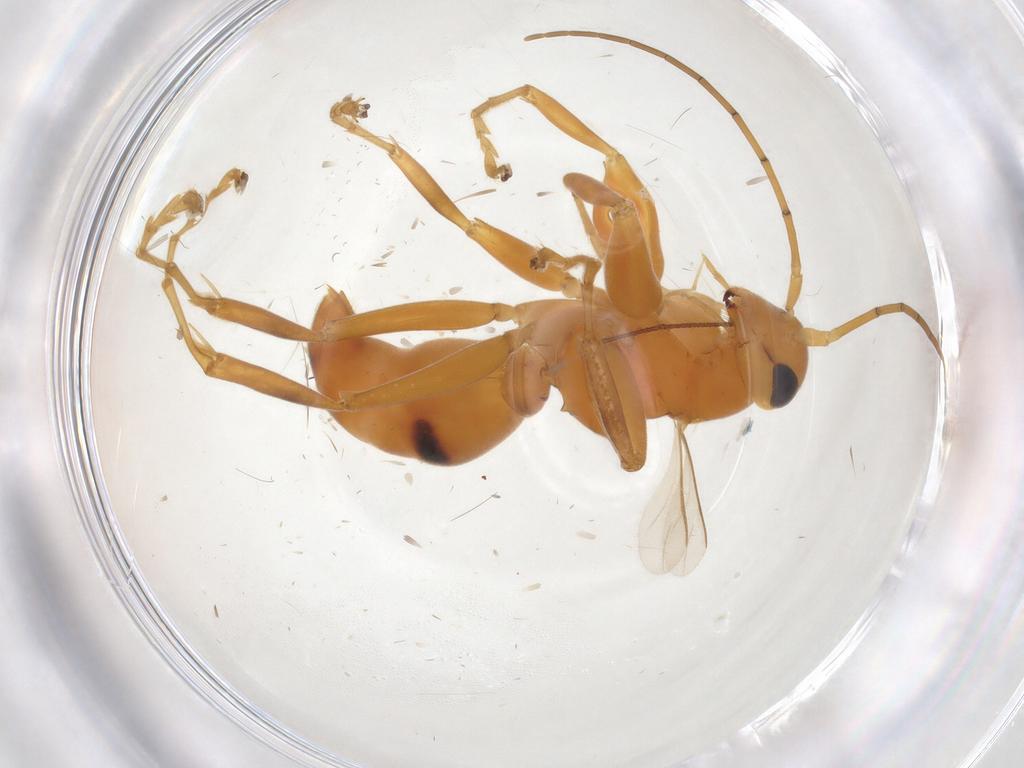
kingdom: Animalia
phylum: Arthropoda
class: Insecta
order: Hymenoptera
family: Rhopalosomatidae
